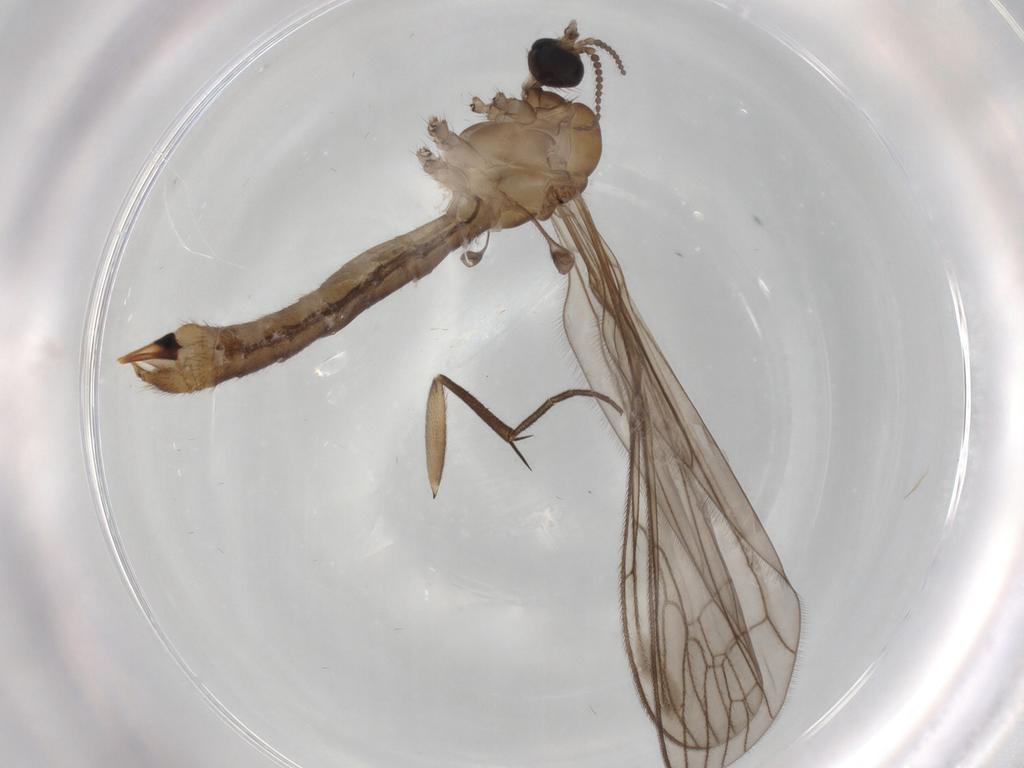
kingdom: Animalia
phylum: Arthropoda
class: Insecta
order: Diptera
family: Limoniidae
